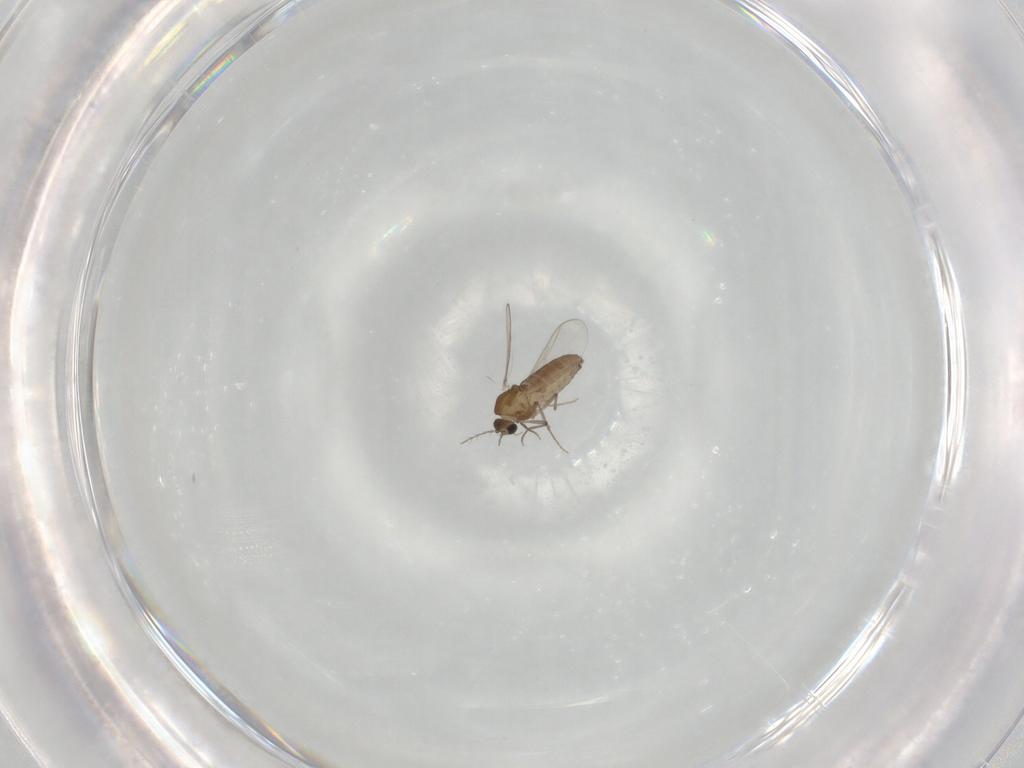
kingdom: Animalia
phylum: Arthropoda
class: Insecta
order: Diptera
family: Chironomidae
